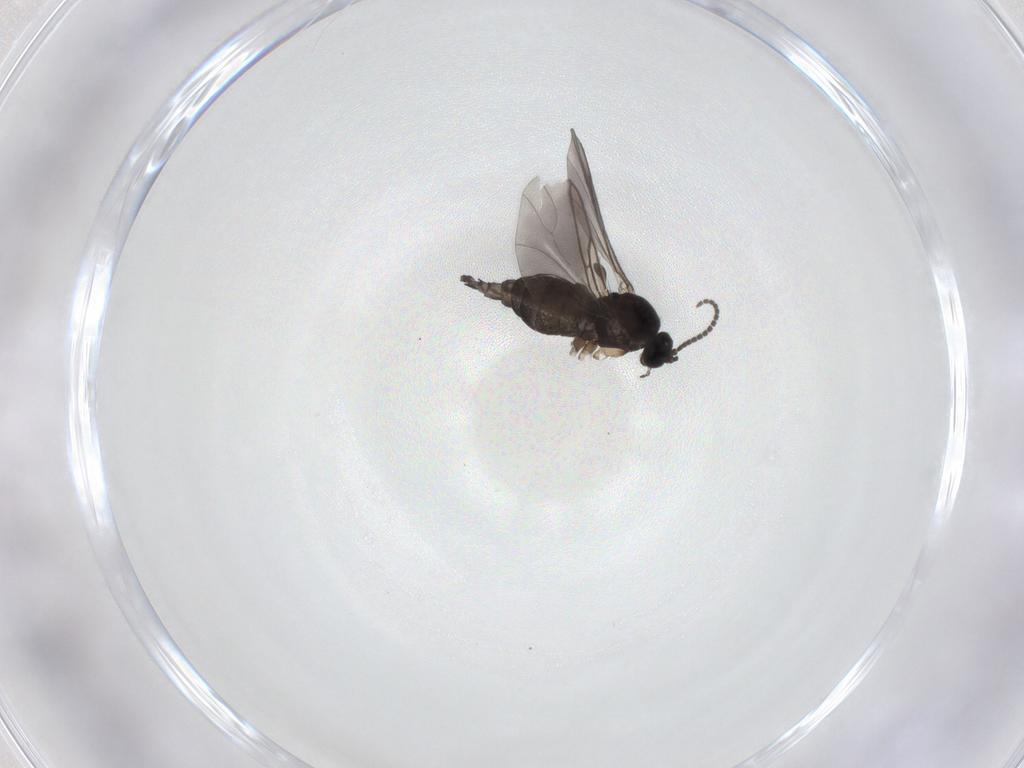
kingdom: Animalia
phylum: Arthropoda
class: Insecta
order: Diptera
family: Sciaridae
